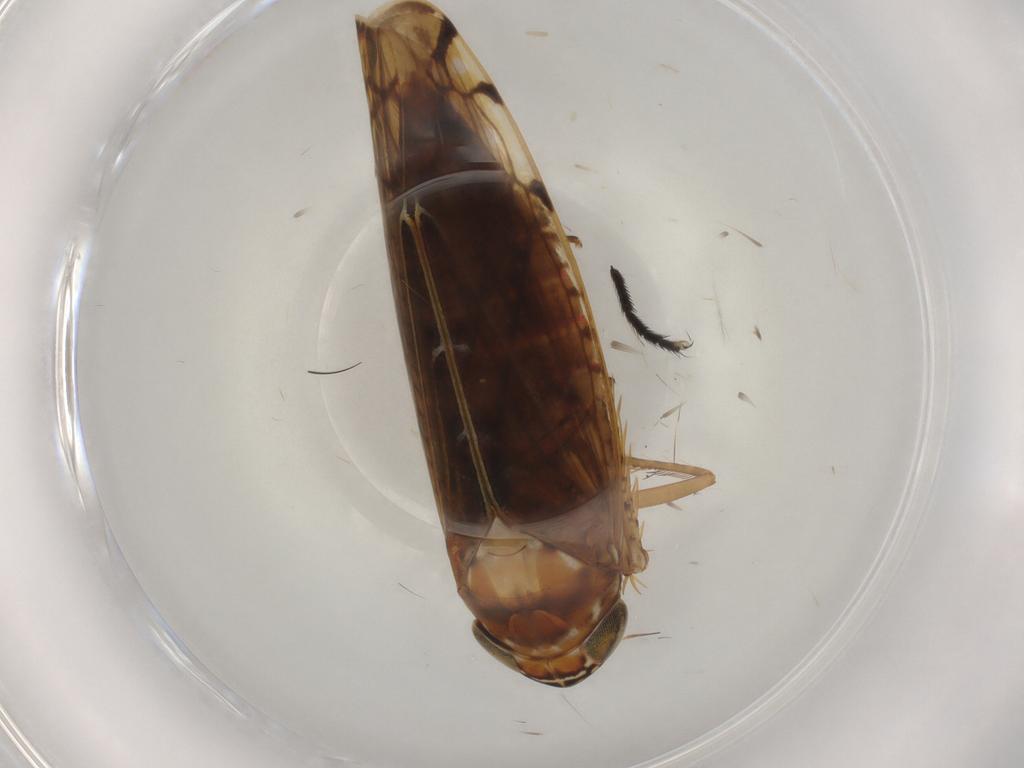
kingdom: Animalia
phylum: Arthropoda
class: Insecta
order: Hemiptera
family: Cicadellidae
